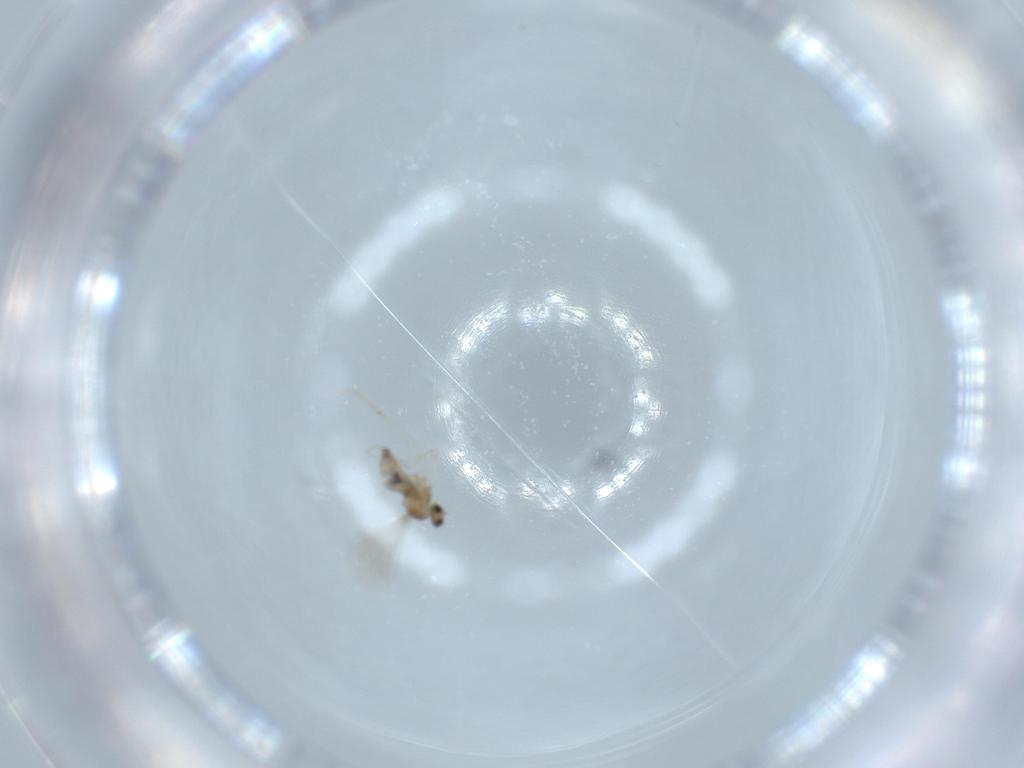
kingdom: Animalia
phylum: Arthropoda
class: Insecta
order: Diptera
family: Cecidomyiidae
